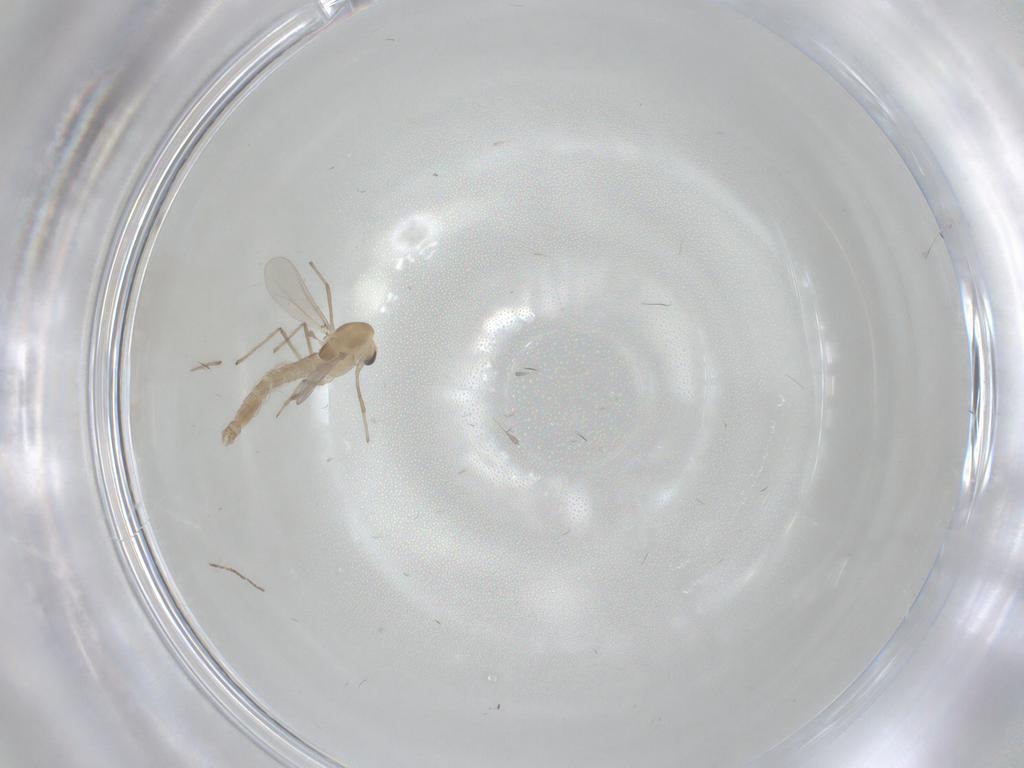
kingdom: Animalia
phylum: Arthropoda
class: Insecta
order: Diptera
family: Chironomidae
